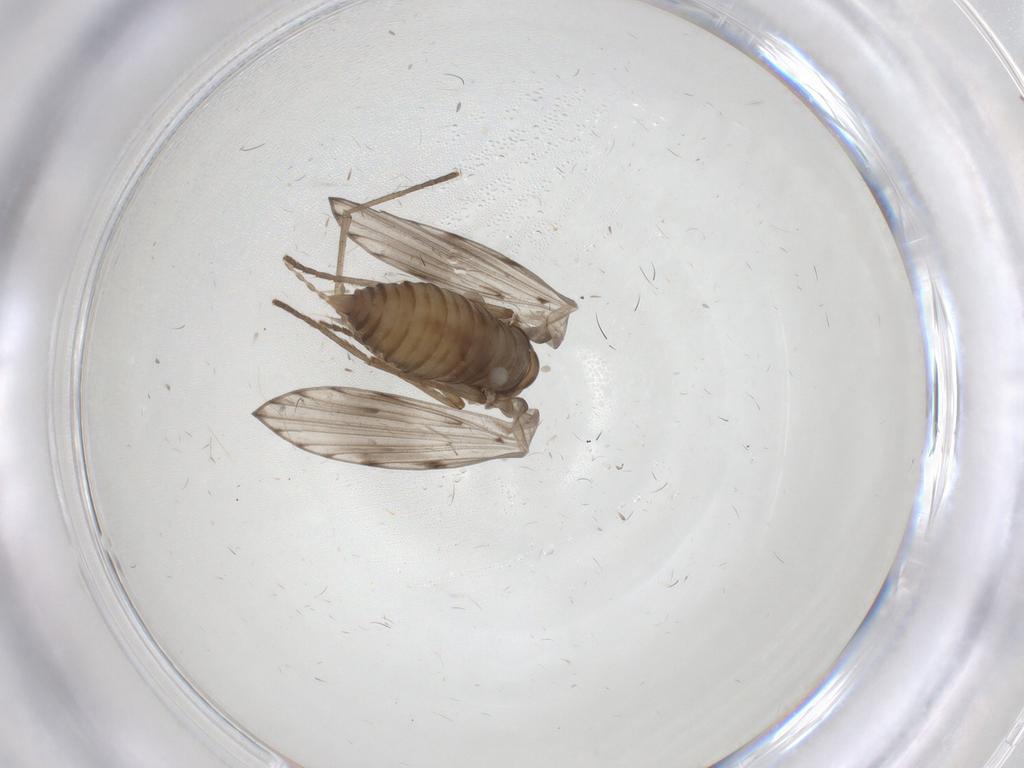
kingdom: Animalia
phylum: Arthropoda
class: Insecta
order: Diptera
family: Psychodidae
